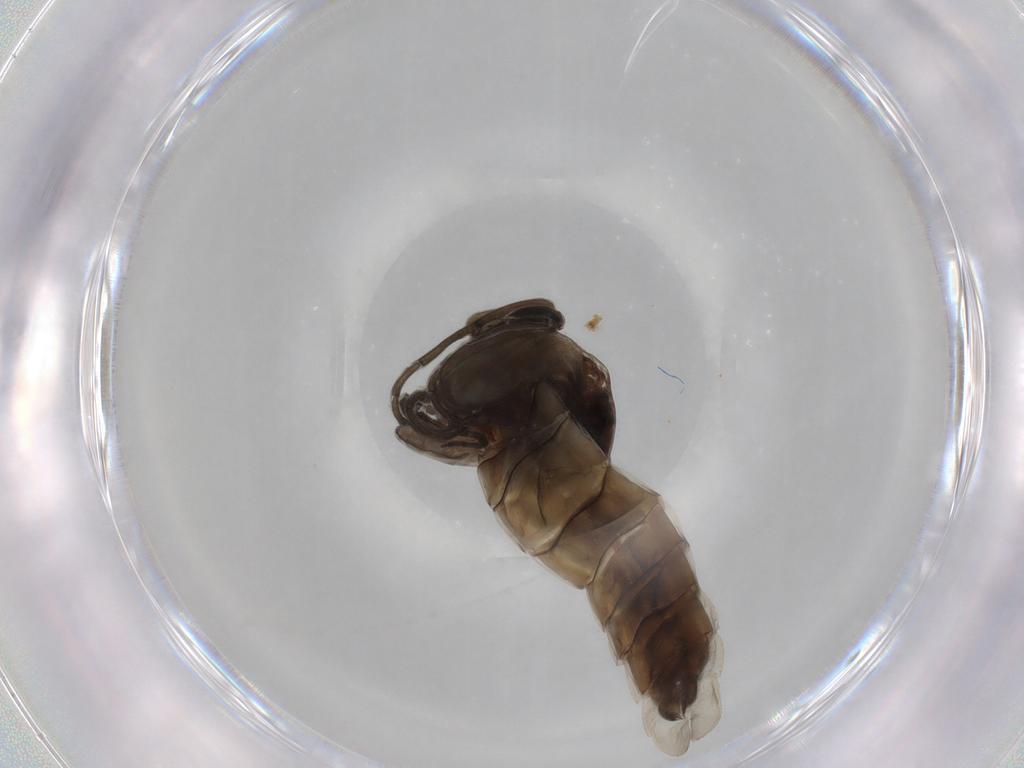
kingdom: Animalia
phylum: Arthropoda
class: Insecta
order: Diptera
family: Chironomidae
